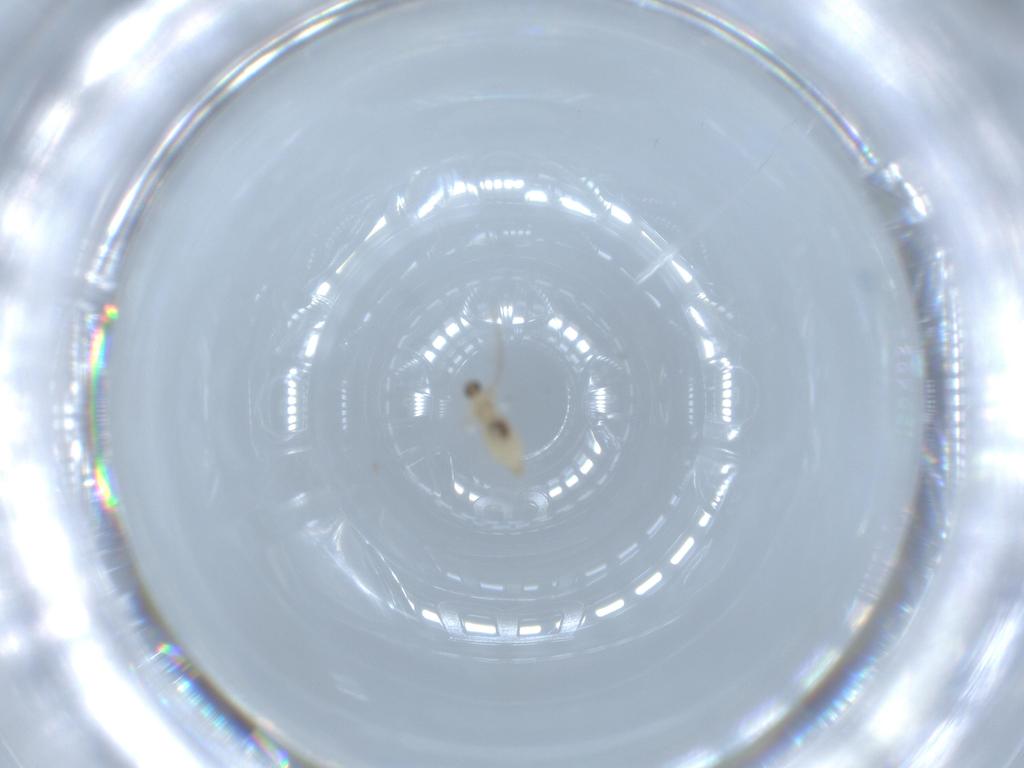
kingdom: Animalia
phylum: Arthropoda
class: Insecta
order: Diptera
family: Cecidomyiidae
